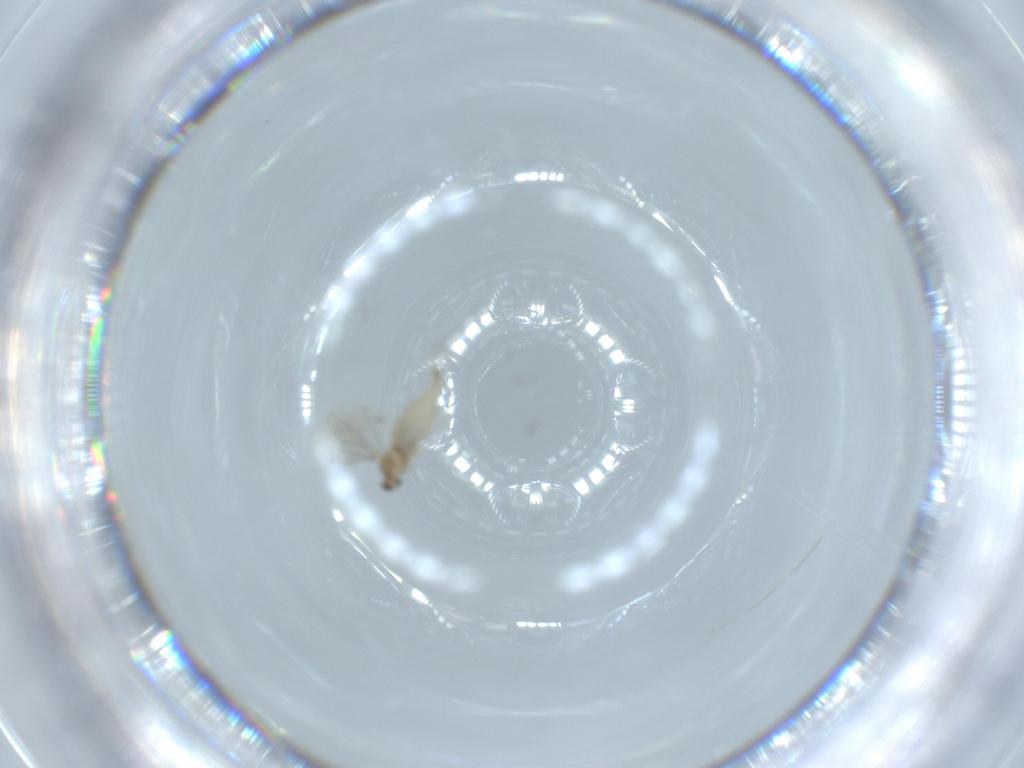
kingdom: Animalia
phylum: Arthropoda
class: Insecta
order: Diptera
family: Cecidomyiidae
